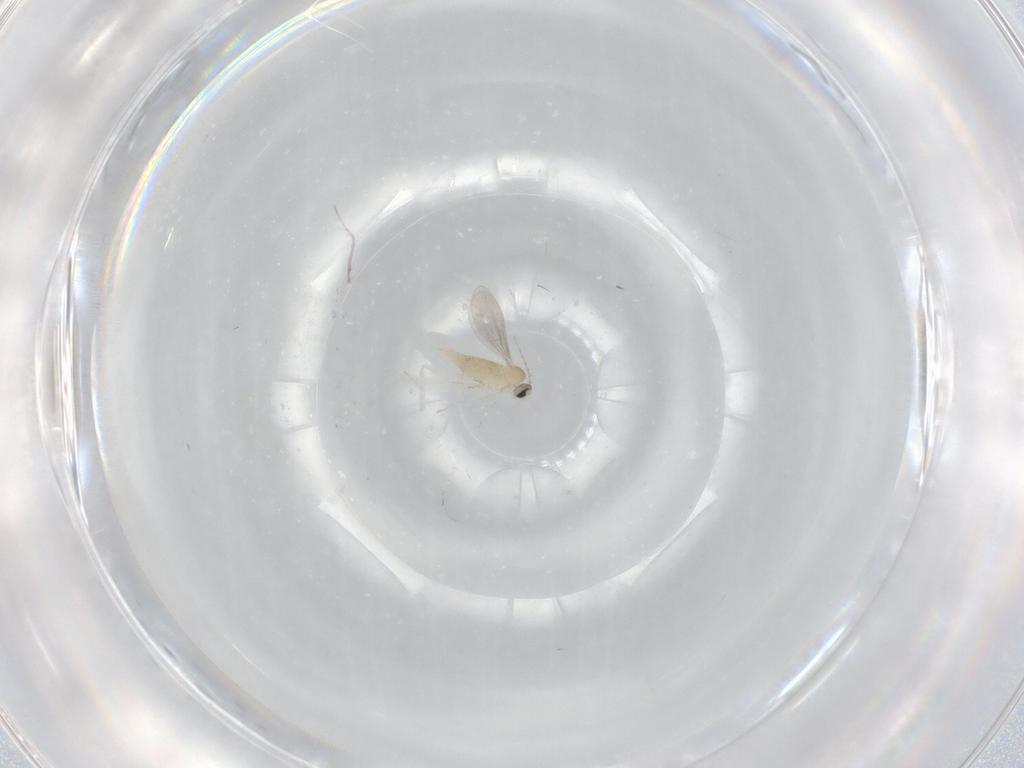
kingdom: Animalia
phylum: Arthropoda
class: Insecta
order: Diptera
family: Cecidomyiidae
